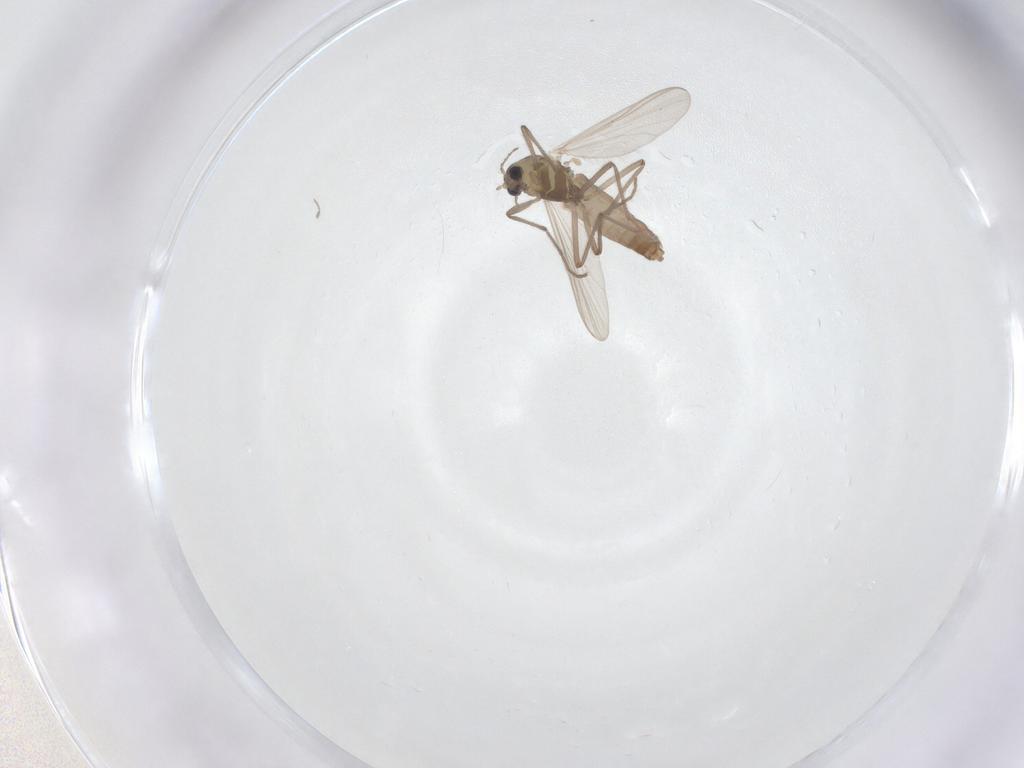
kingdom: Animalia
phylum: Arthropoda
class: Insecta
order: Diptera
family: Chironomidae
